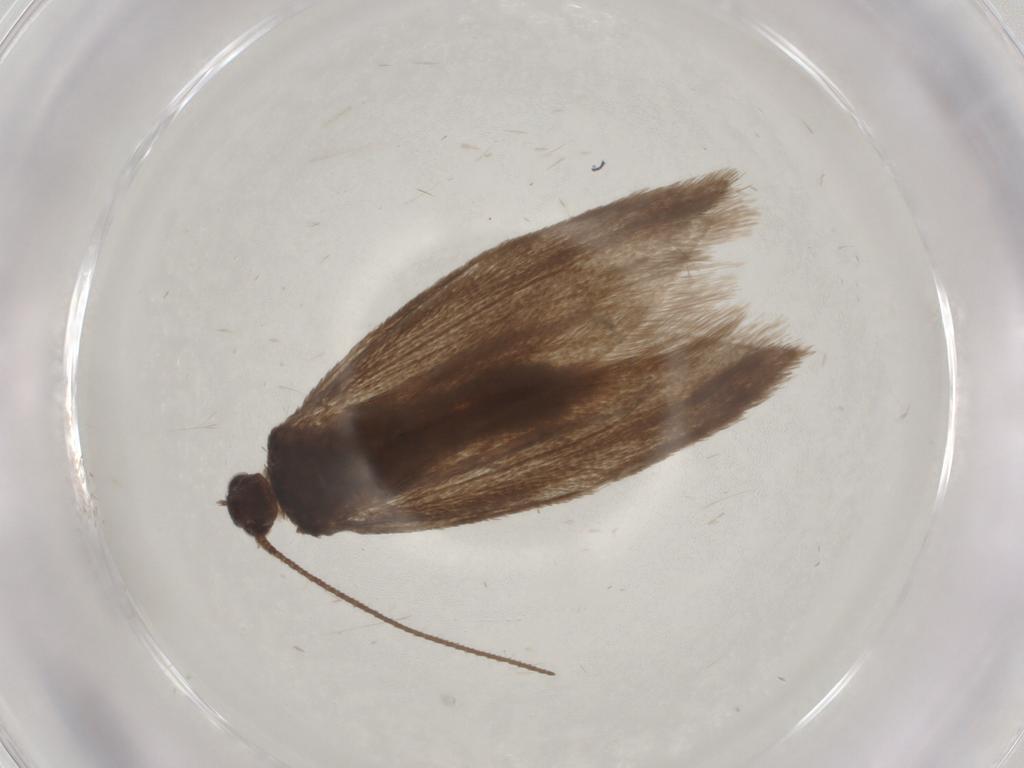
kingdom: Animalia
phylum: Arthropoda
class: Insecta
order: Lepidoptera
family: Limacodidae
